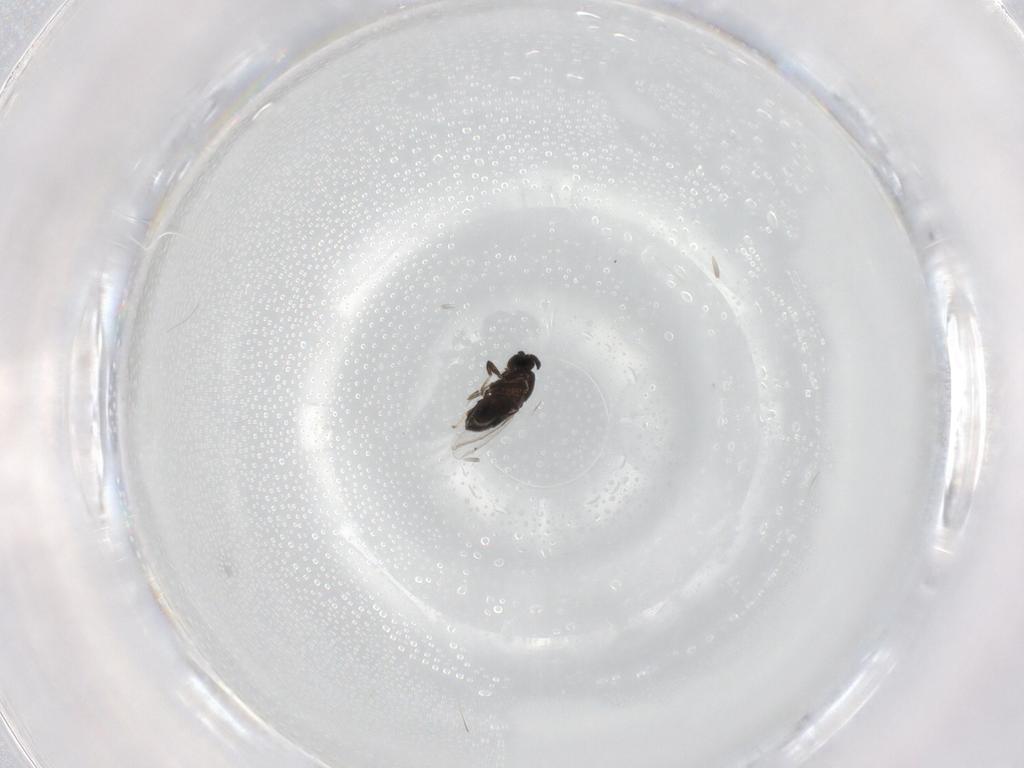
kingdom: Animalia
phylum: Arthropoda
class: Insecta
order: Diptera
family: Scatopsidae
